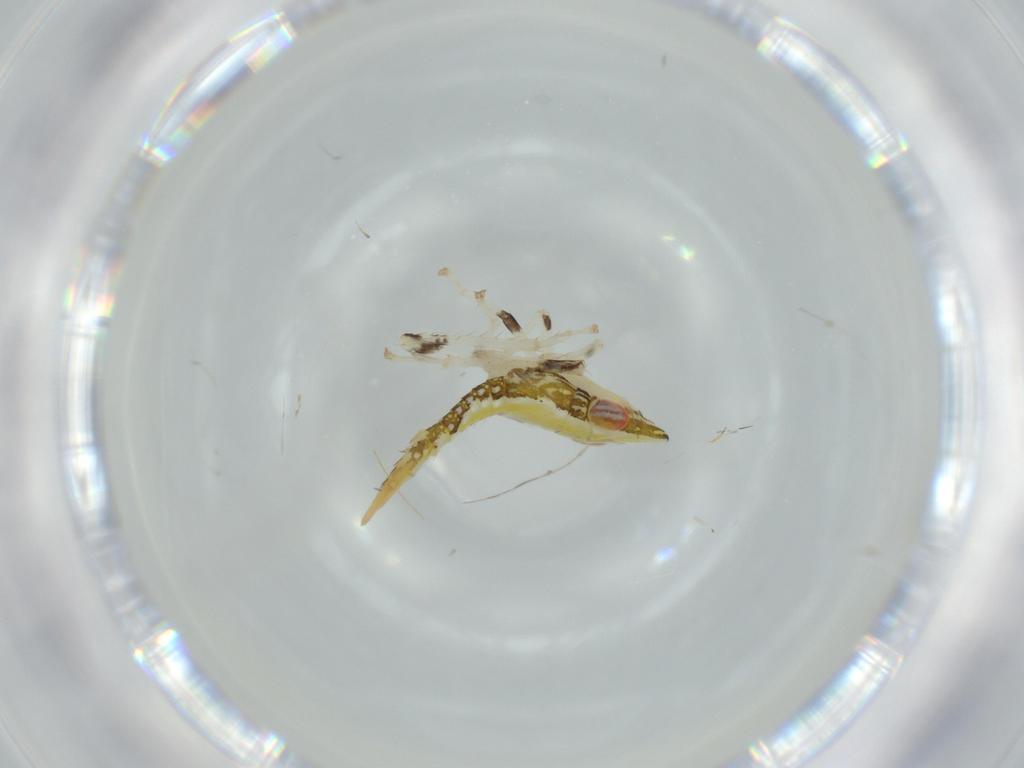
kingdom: Animalia
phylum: Arthropoda
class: Insecta
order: Hemiptera
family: Cicadellidae
